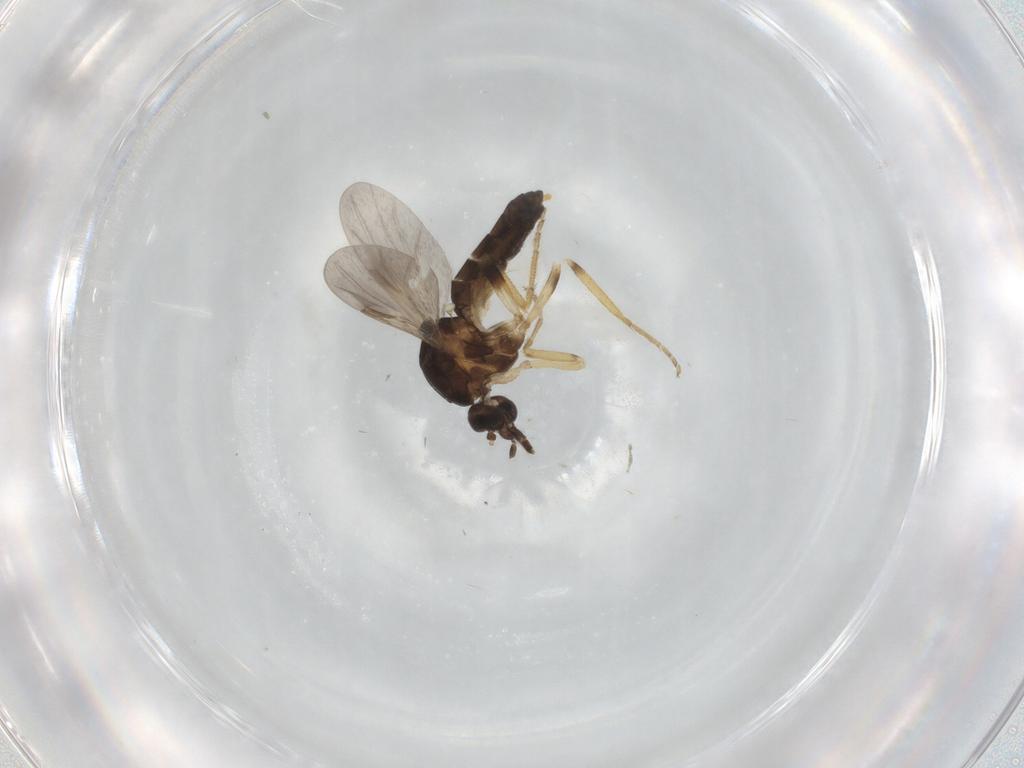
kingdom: Animalia
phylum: Arthropoda
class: Insecta
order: Diptera
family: Ceratopogonidae
